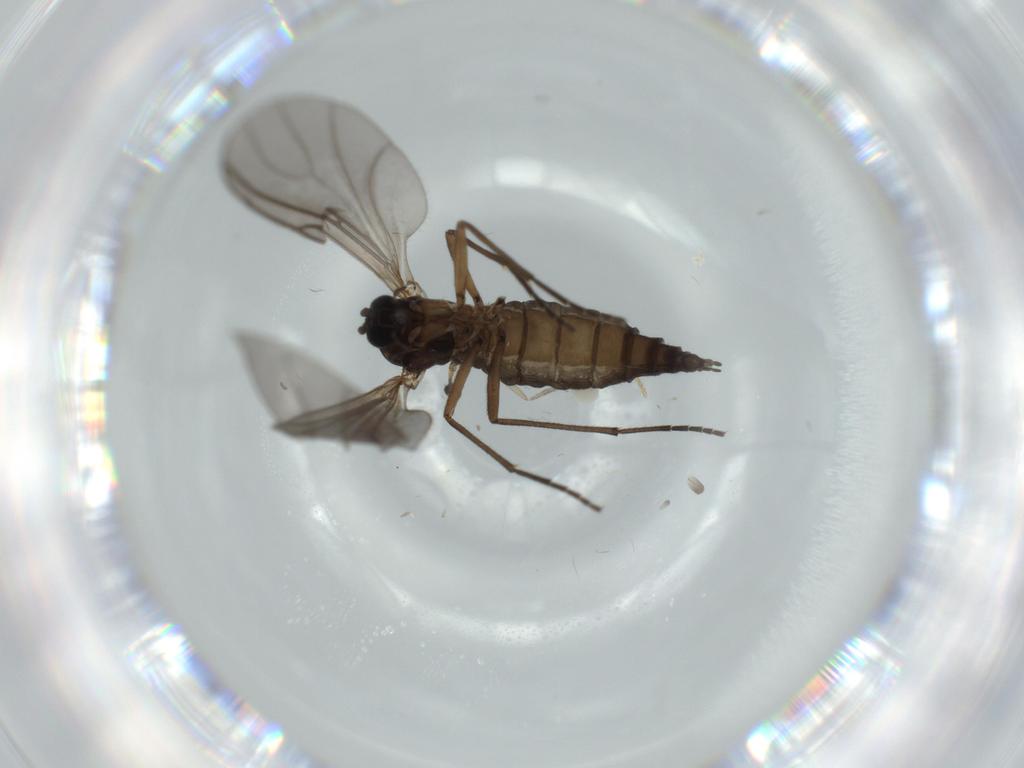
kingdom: Animalia
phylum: Arthropoda
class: Insecta
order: Diptera
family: Sciaridae
